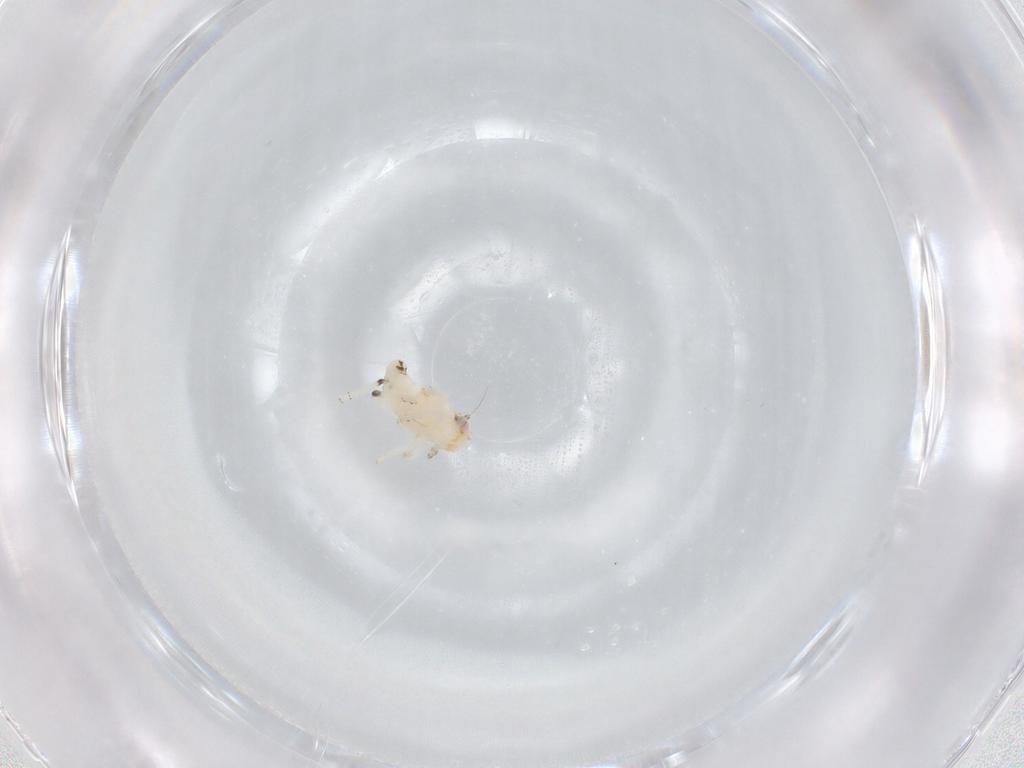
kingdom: Animalia
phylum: Arthropoda
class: Insecta
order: Hemiptera
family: Nogodinidae
